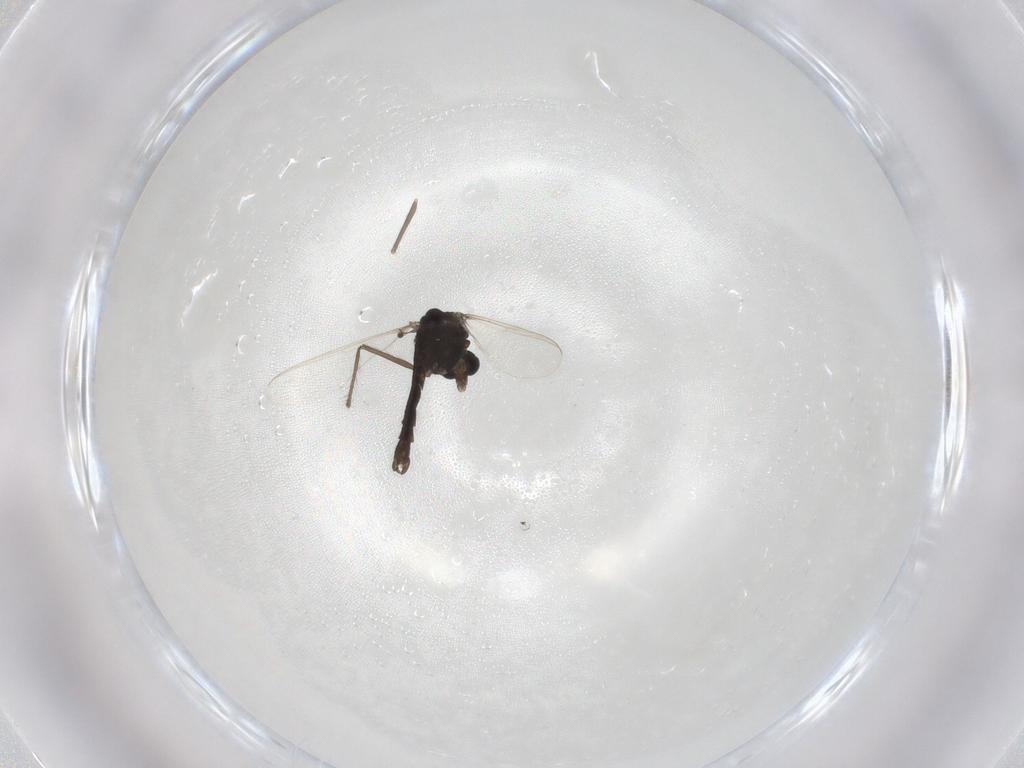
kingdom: Animalia
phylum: Arthropoda
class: Insecta
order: Diptera
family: Chironomidae
